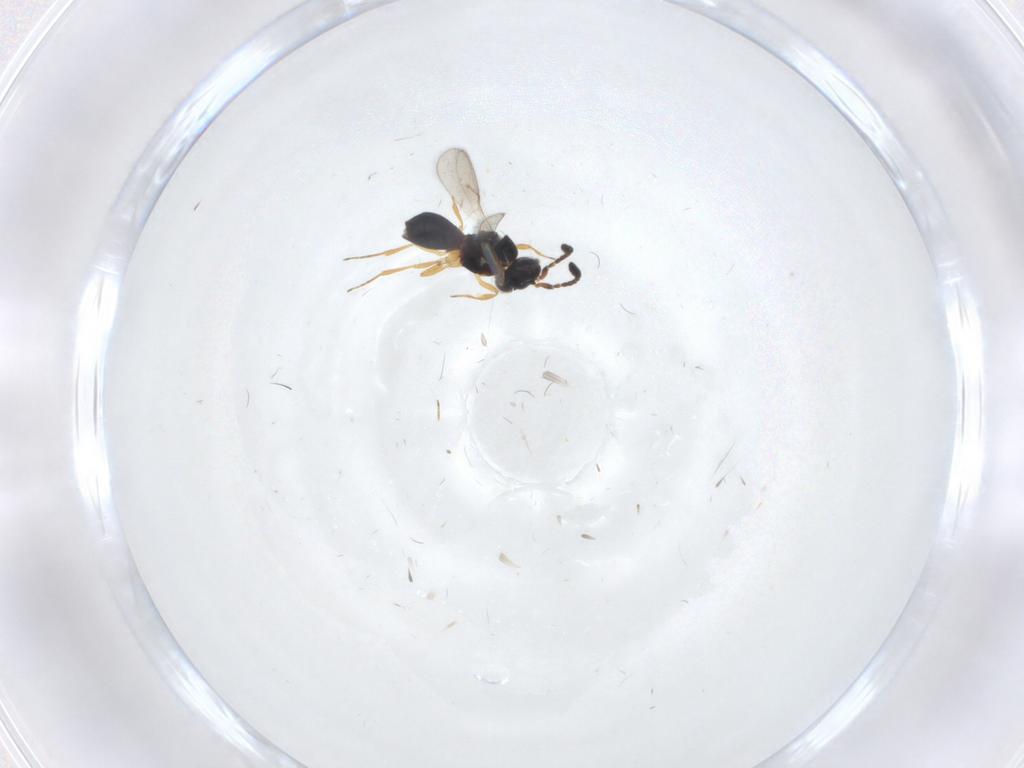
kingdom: Animalia
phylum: Arthropoda
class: Insecta
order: Hymenoptera
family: Scelionidae
